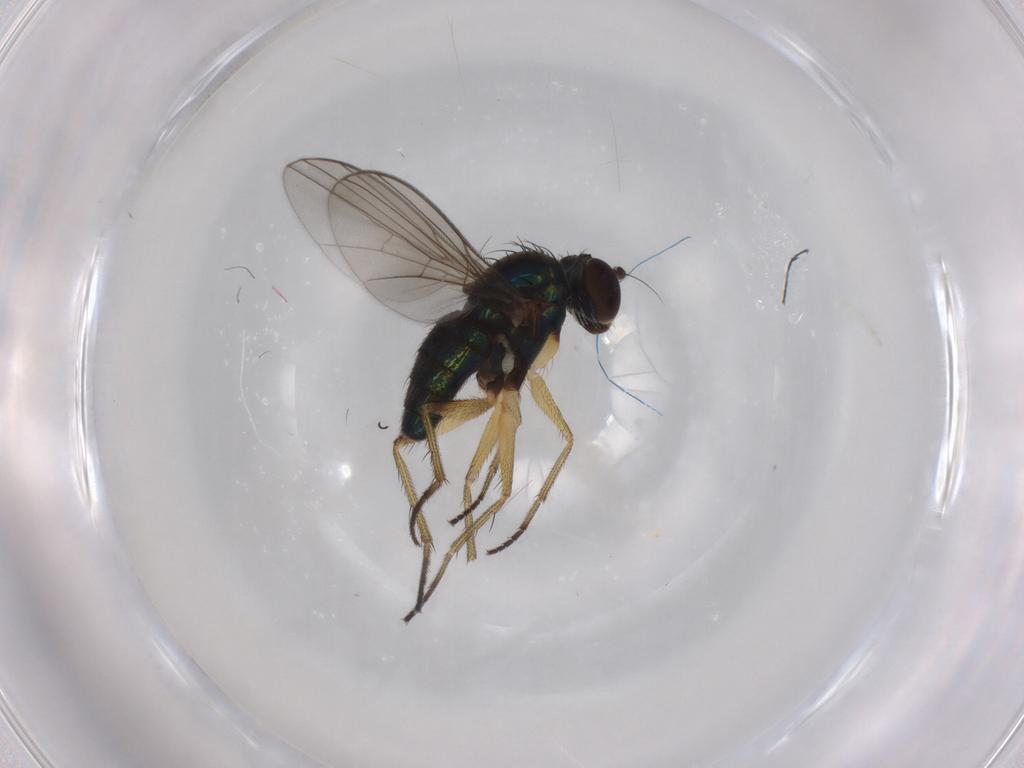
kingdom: Animalia
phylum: Arthropoda
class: Insecta
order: Diptera
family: Dolichopodidae
